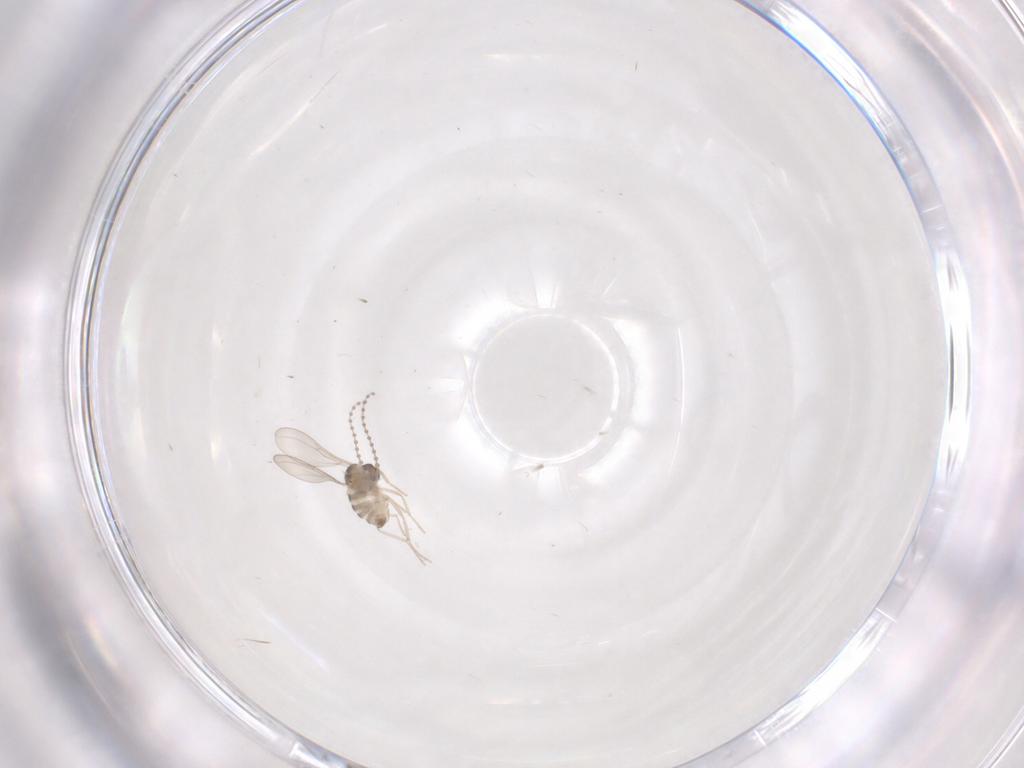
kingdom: Animalia
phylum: Arthropoda
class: Insecta
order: Diptera
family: Cecidomyiidae
